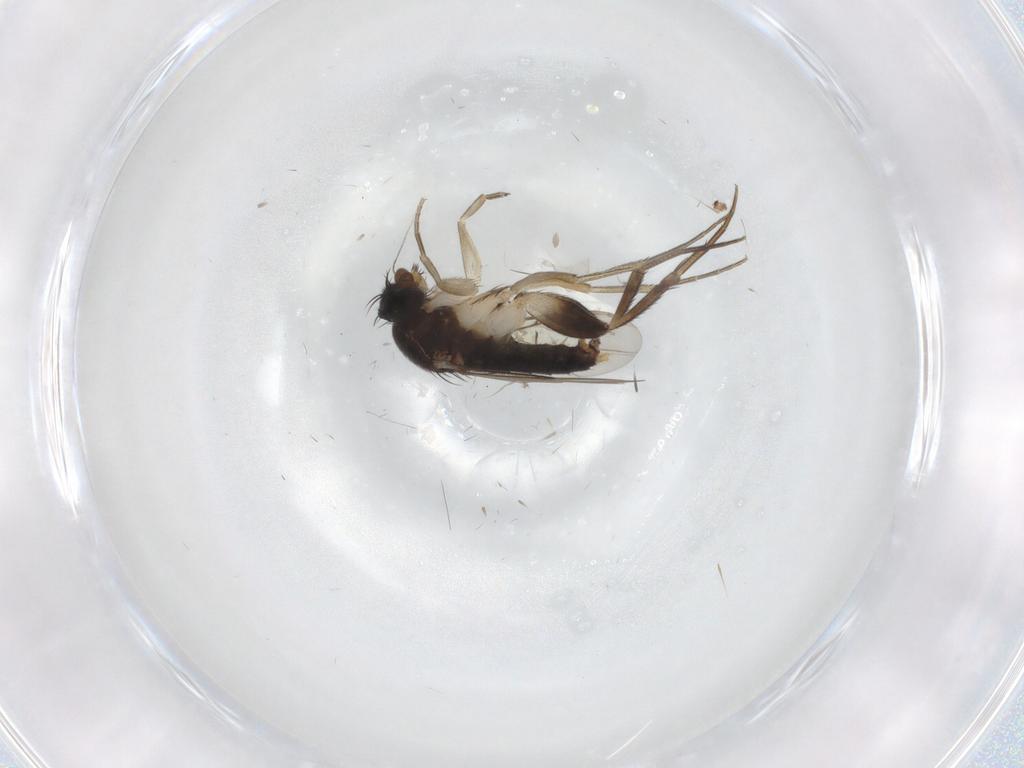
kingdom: Animalia
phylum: Arthropoda
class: Insecta
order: Diptera
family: Phoridae
